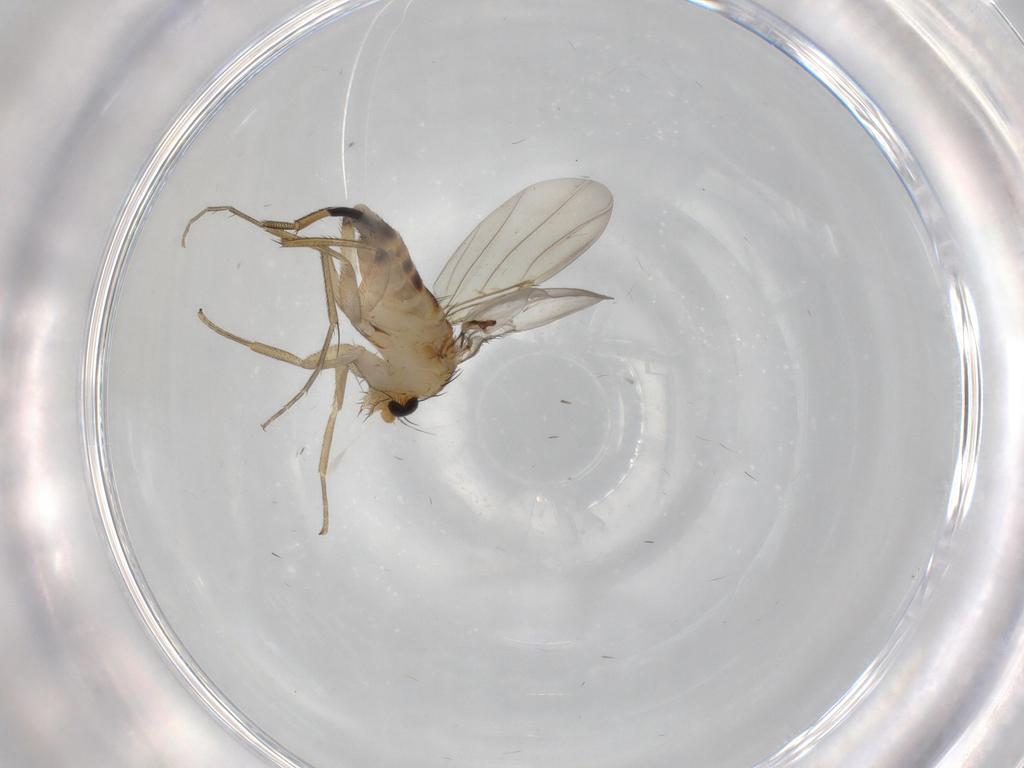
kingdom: Animalia
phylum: Arthropoda
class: Insecta
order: Diptera
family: Phoridae
